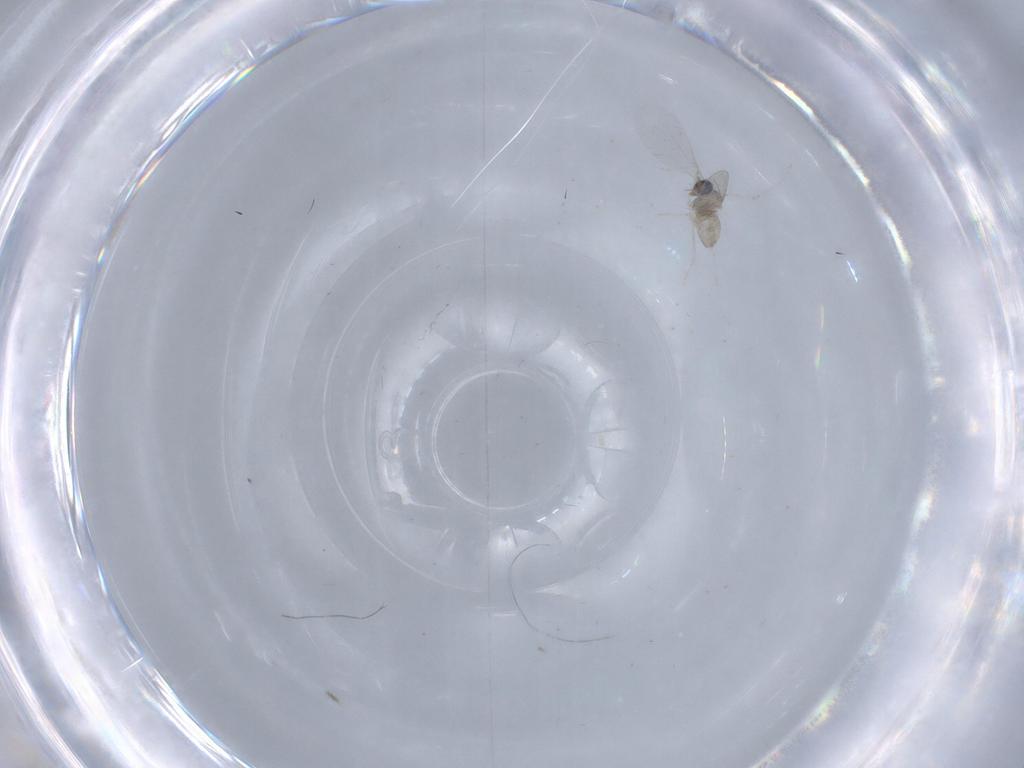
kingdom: Animalia
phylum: Arthropoda
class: Insecta
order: Diptera
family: Cecidomyiidae
